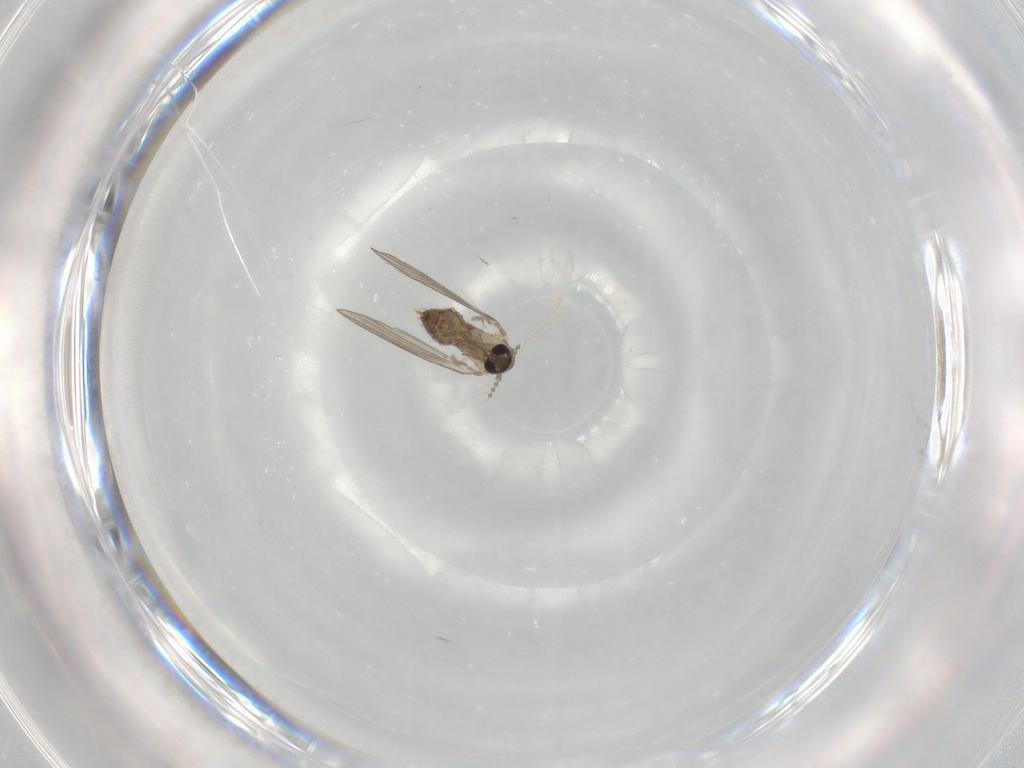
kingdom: Animalia
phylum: Arthropoda
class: Insecta
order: Diptera
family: Psychodidae
